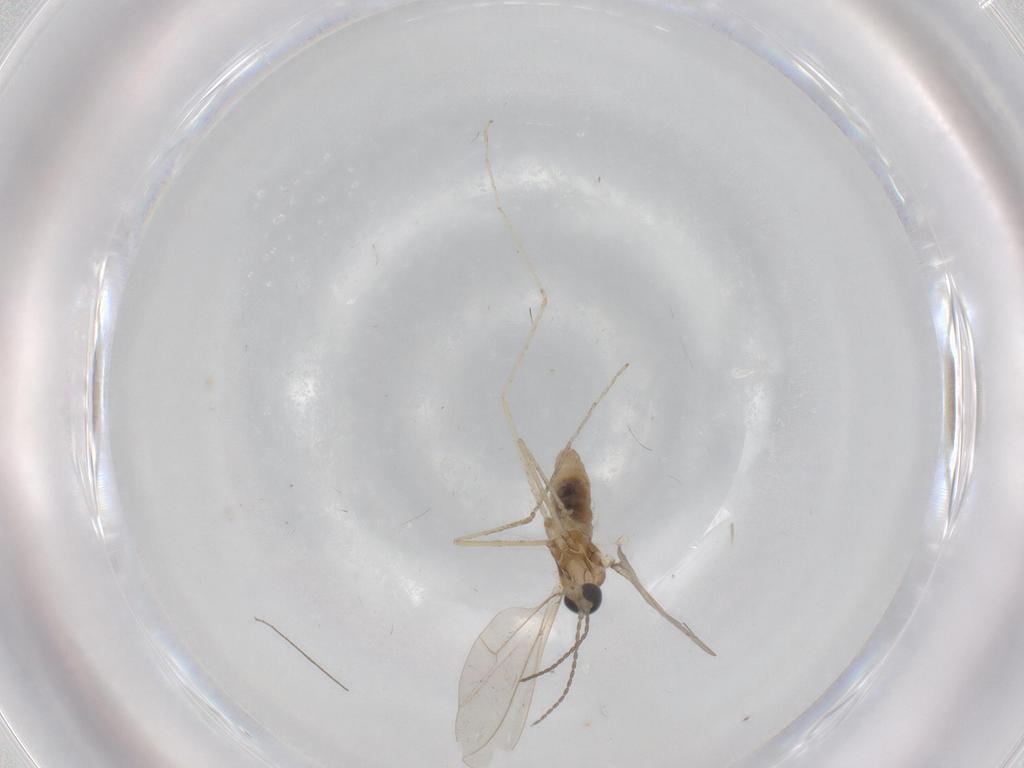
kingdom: Animalia
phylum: Arthropoda
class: Insecta
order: Diptera
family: Cecidomyiidae
